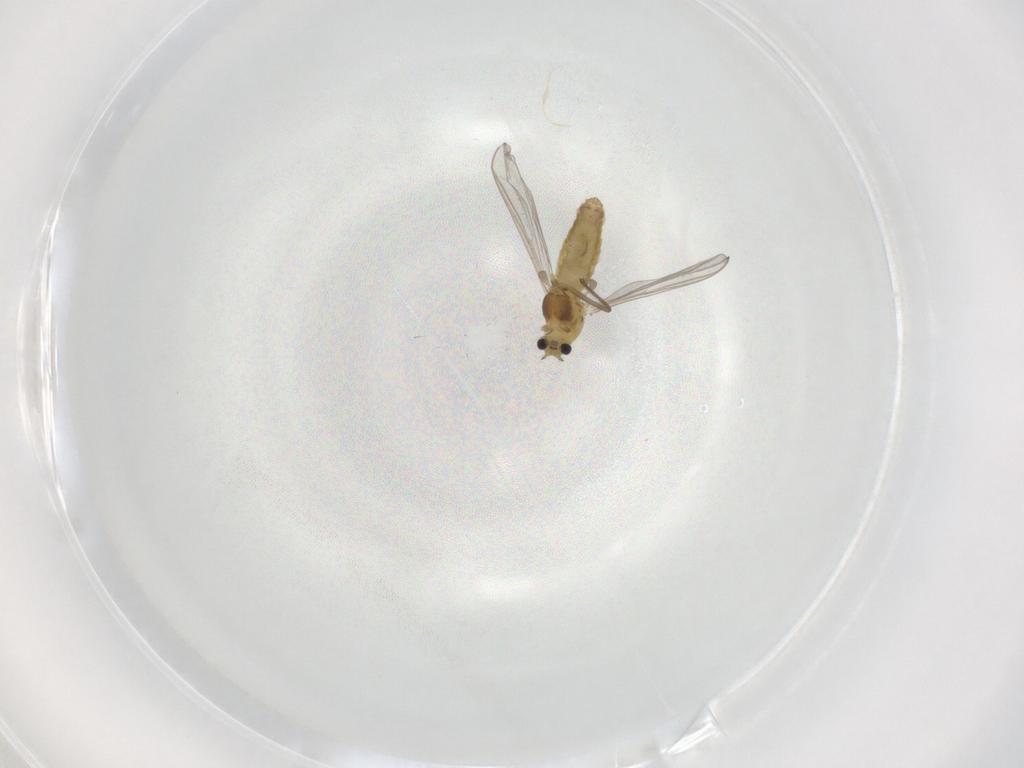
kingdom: Animalia
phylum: Arthropoda
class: Insecta
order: Diptera
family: Chironomidae
